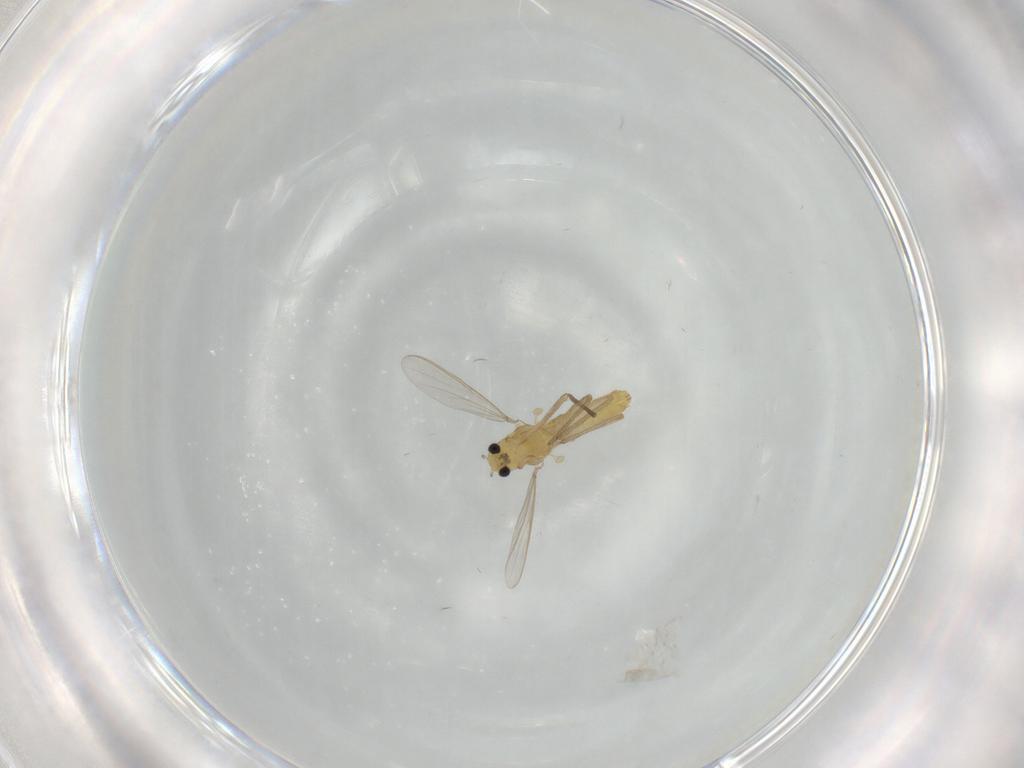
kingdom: Animalia
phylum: Arthropoda
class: Insecta
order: Diptera
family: Chironomidae
